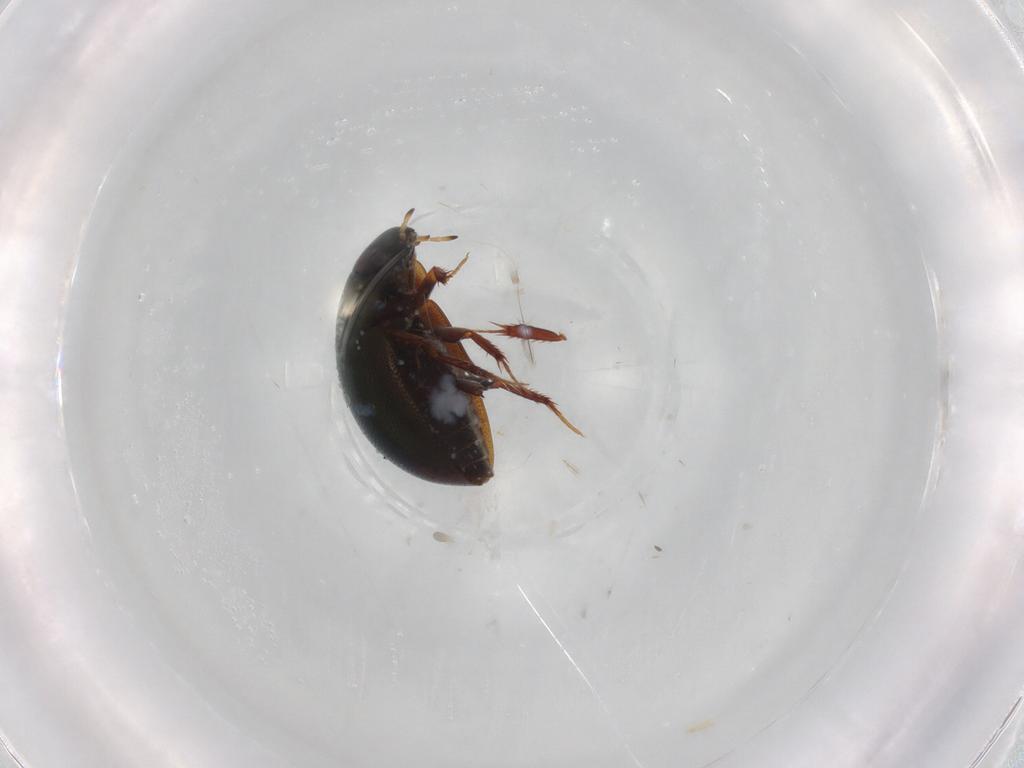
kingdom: Animalia
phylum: Arthropoda
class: Insecta
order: Coleoptera
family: Hydrophilidae
